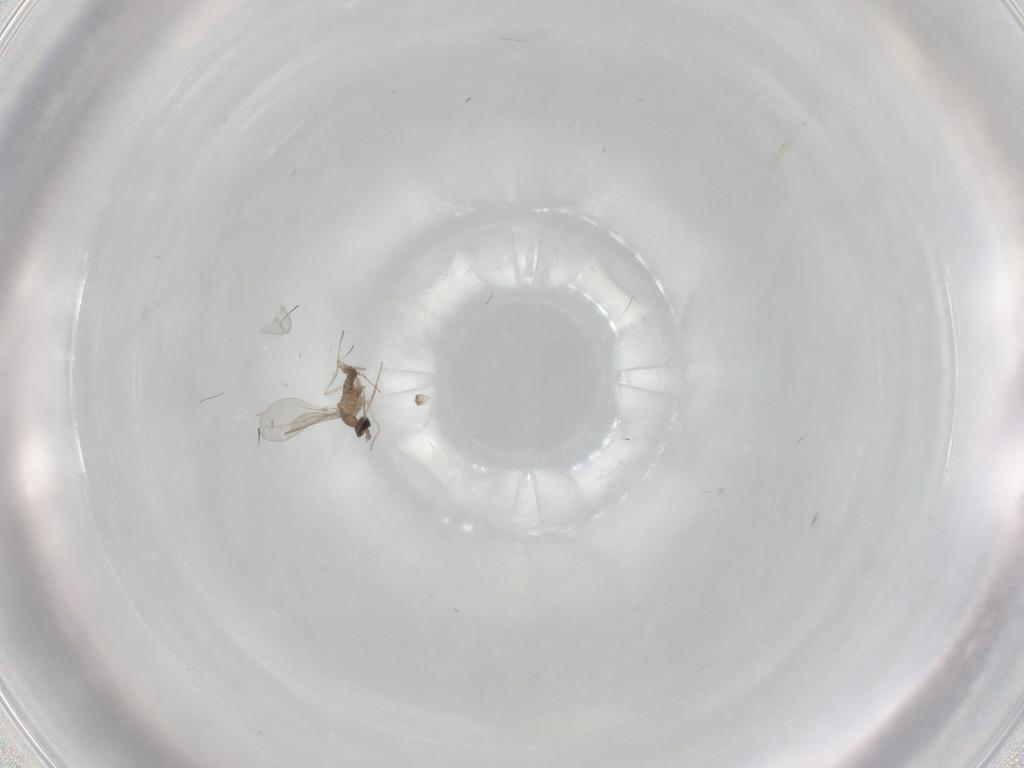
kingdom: Animalia
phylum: Arthropoda
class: Insecta
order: Diptera
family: Cecidomyiidae
